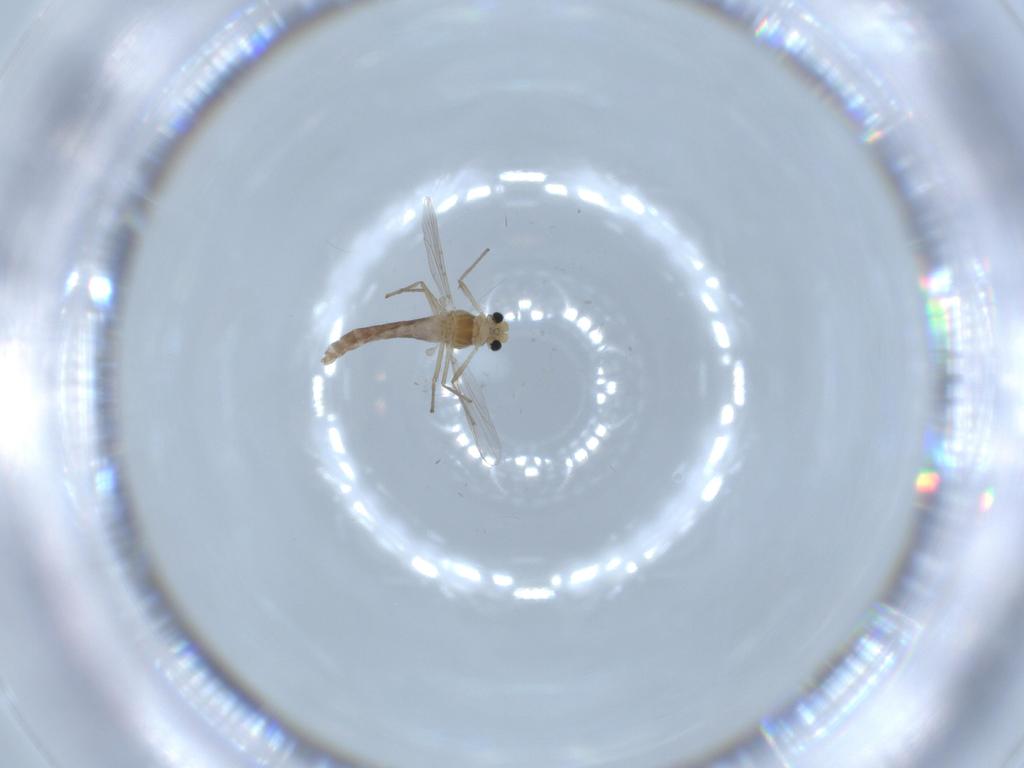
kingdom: Animalia
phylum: Arthropoda
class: Insecta
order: Diptera
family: Chironomidae
